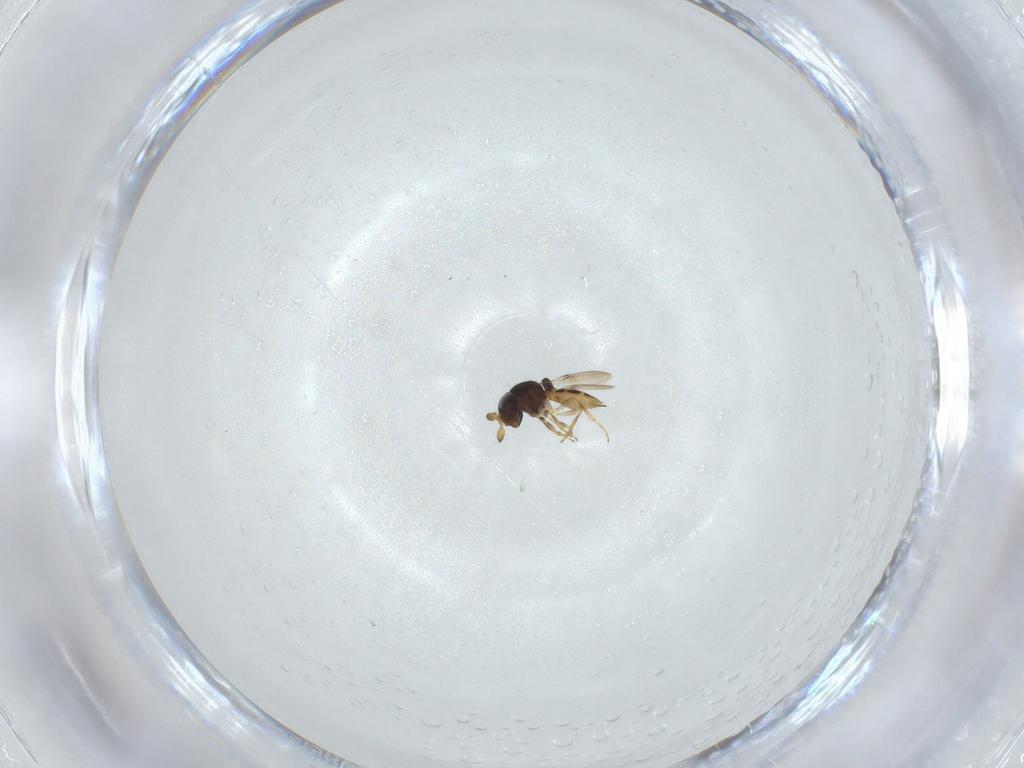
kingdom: Animalia
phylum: Arthropoda
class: Insecta
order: Hymenoptera
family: Scelionidae
